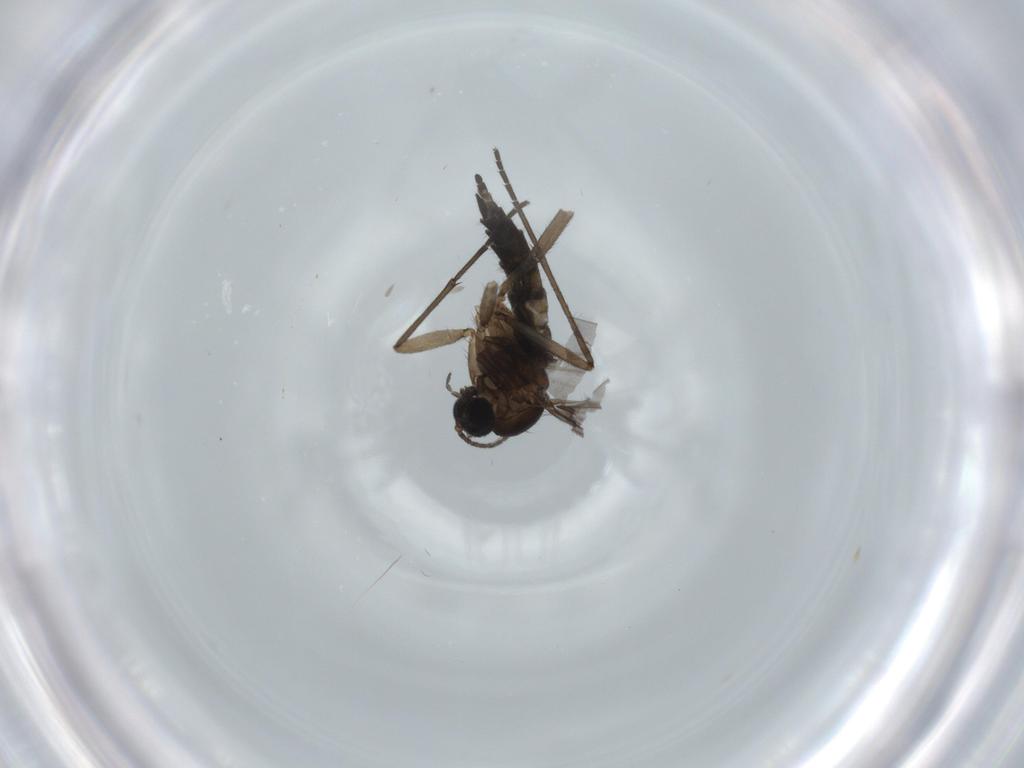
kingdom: Animalia
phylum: Arthropoda
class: Insecta
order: Diptera
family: Sciaridae
